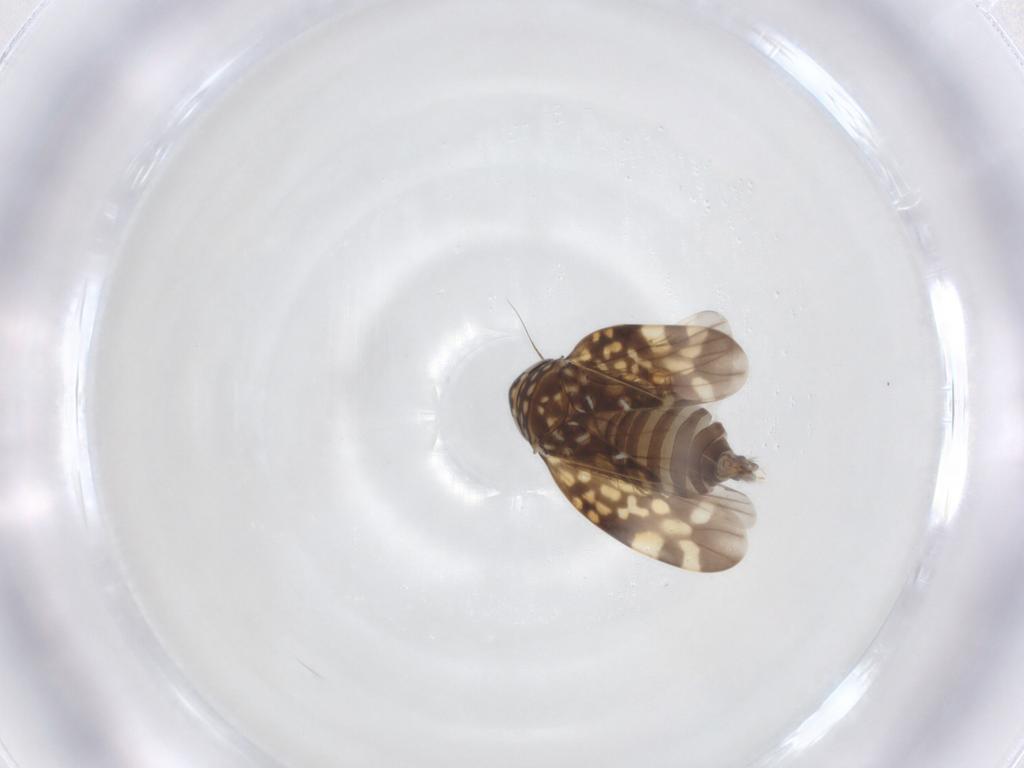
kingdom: Animalia
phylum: Arthropoda
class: Insecta
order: Hemiptera
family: Cicadellidae
